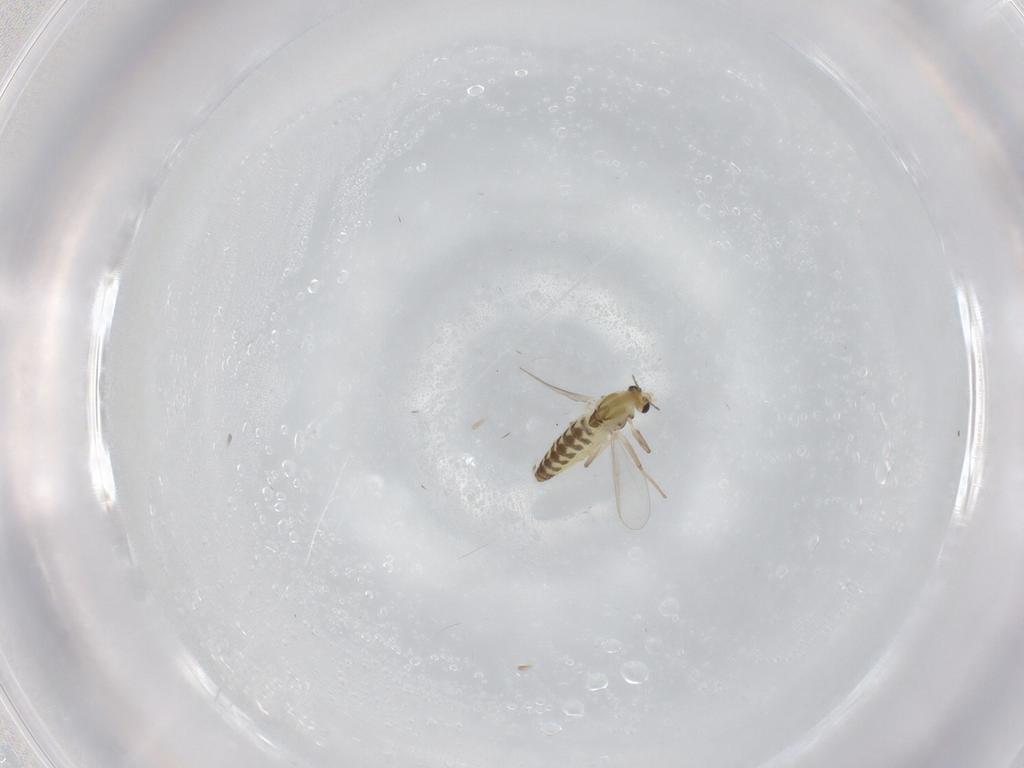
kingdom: Animalia
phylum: Arthropoda
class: Insecta
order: Diptera
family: Chironomidae
